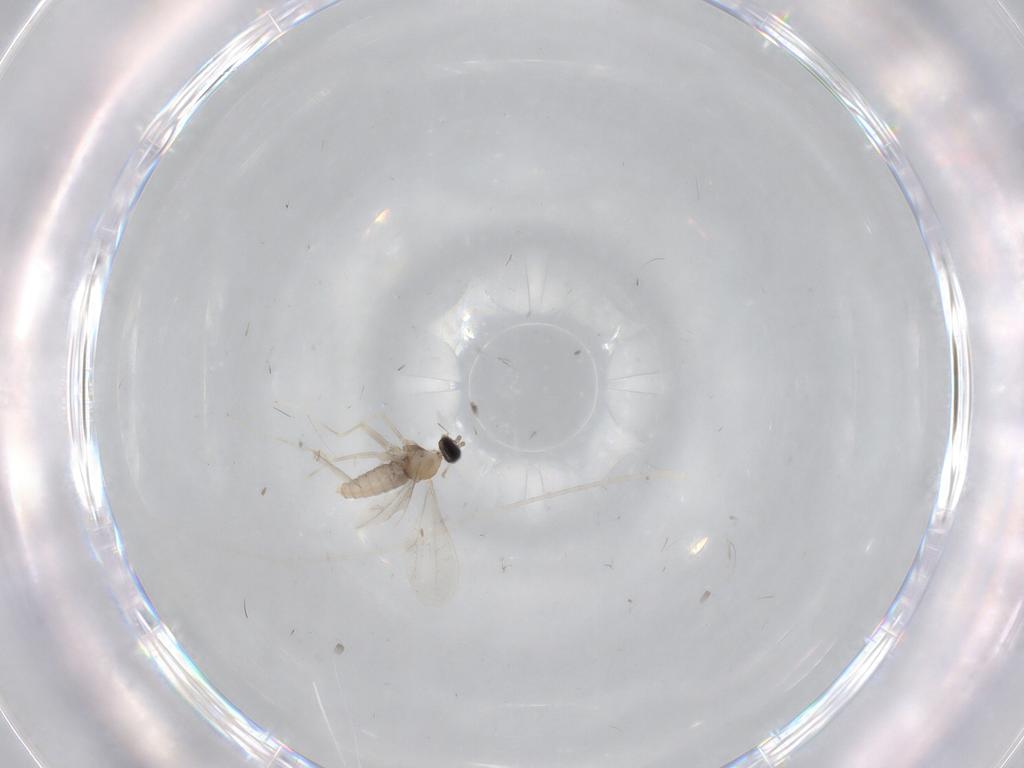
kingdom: Animalia
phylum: Arthropoda
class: Insecta
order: Diptera
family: Cecidomyiidae
